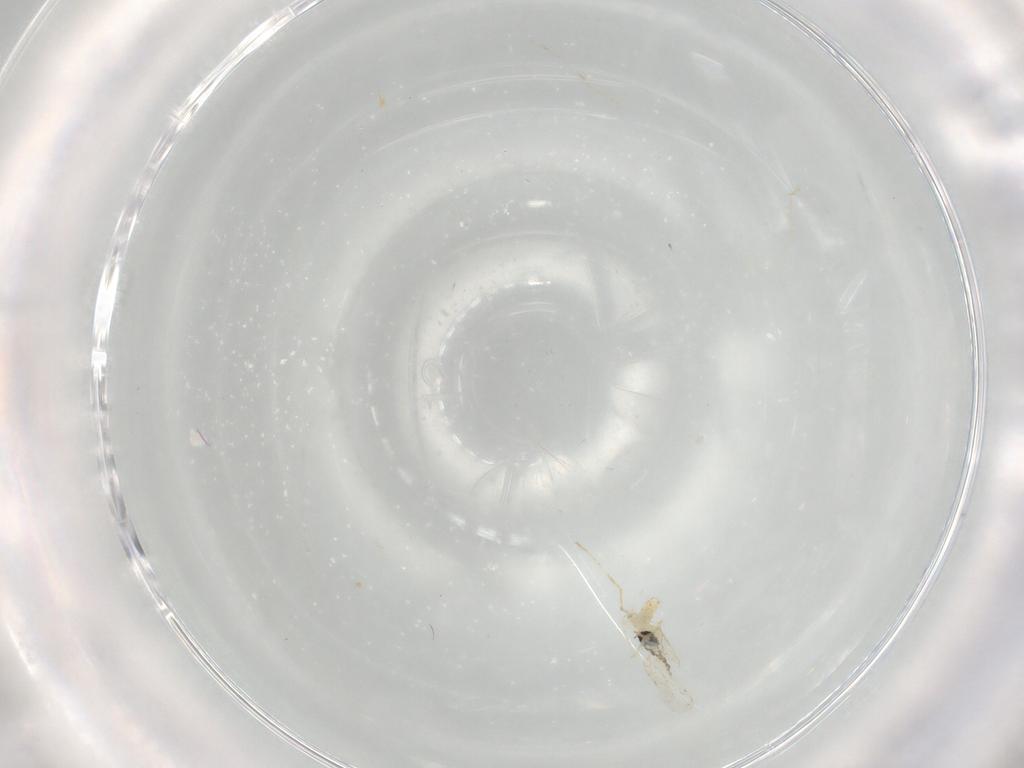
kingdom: Animalia
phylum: Arthropoda
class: Insecta
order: Diptera
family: Cecidomyiidae
